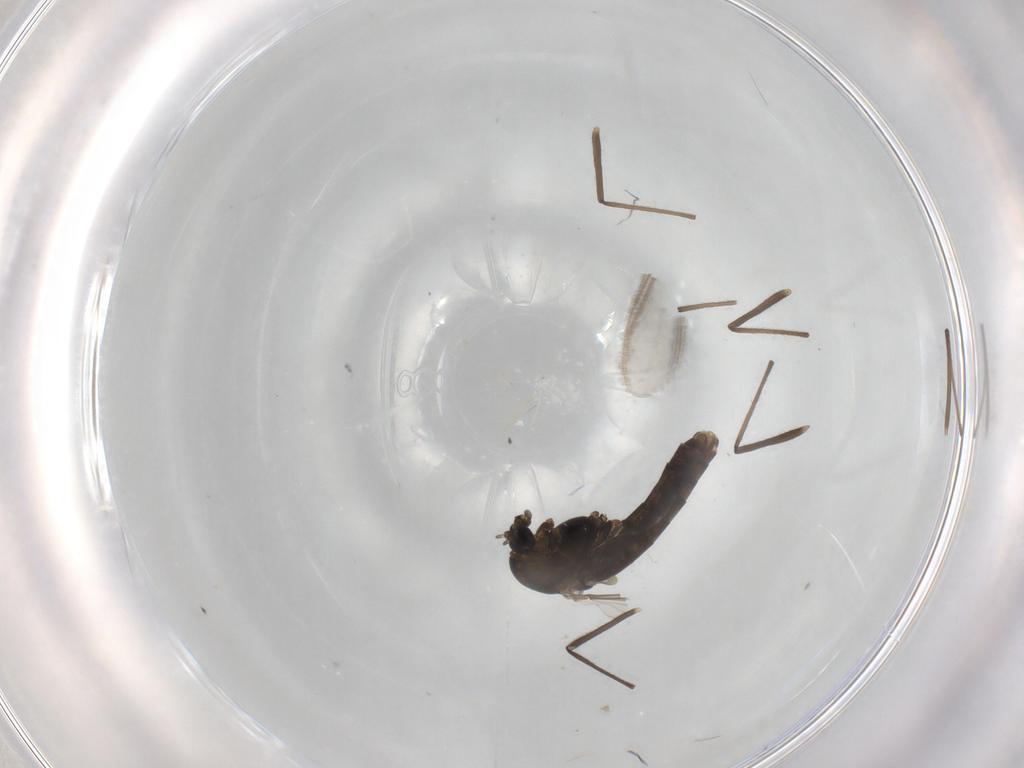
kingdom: Animalia
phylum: Arthropoda
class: Insecta
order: Diptera
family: Chironomidae
